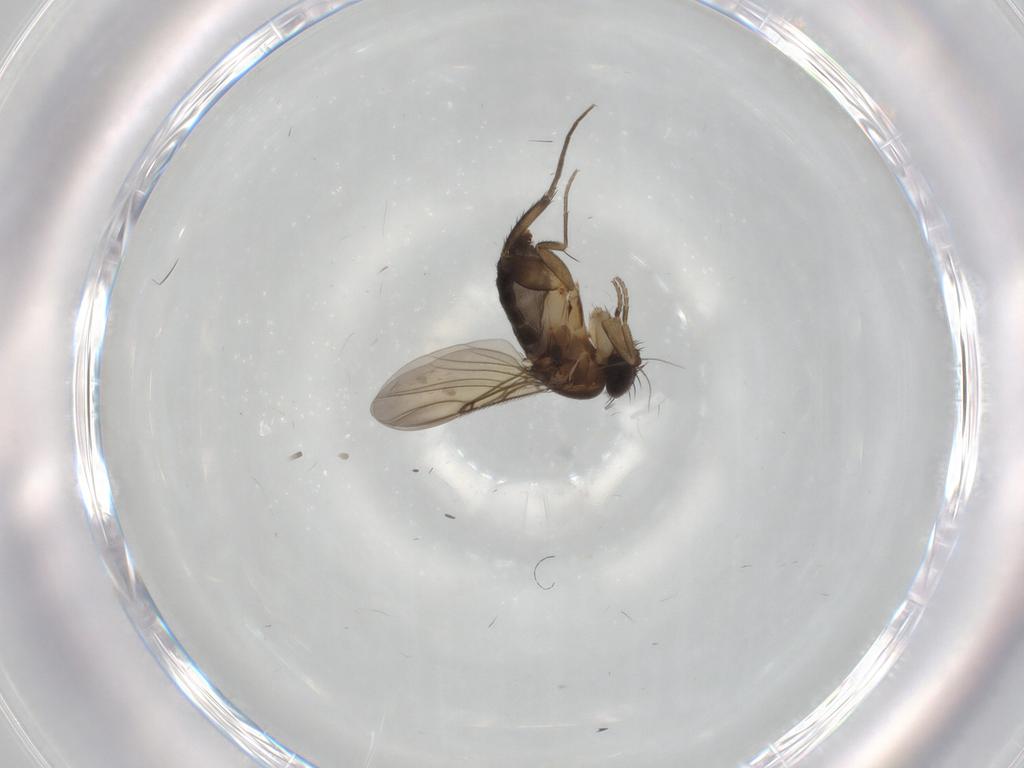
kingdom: Animalia
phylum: Arthropoda
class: Insecta
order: Diptera
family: Phoridae
